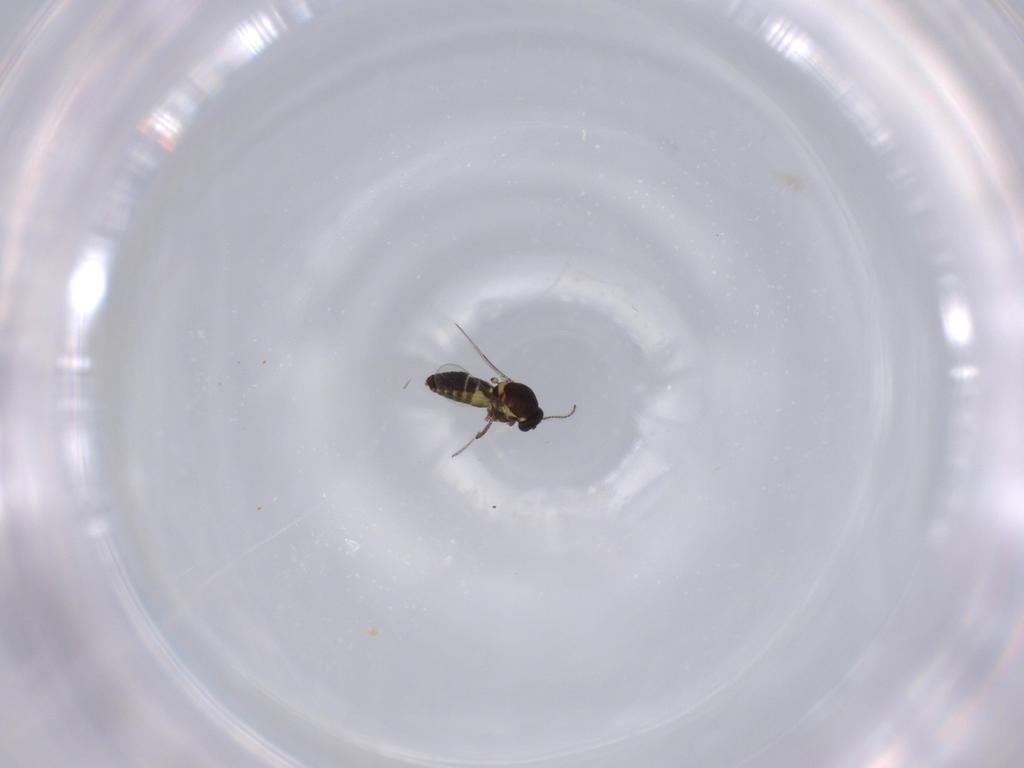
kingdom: Animalia
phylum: Arthropoda
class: Insecta
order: Diptera
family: Ceratopogonidae
